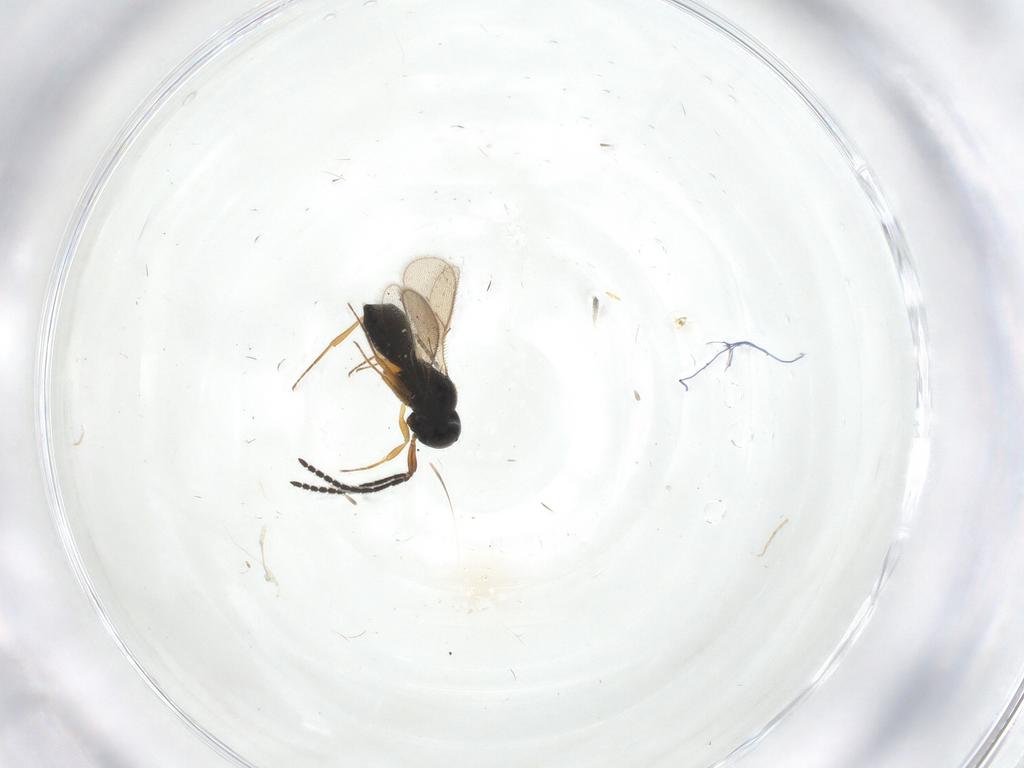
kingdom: Animalia
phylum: Arthropoda
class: Insecta
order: Hymenoptera
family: Scelionidae
